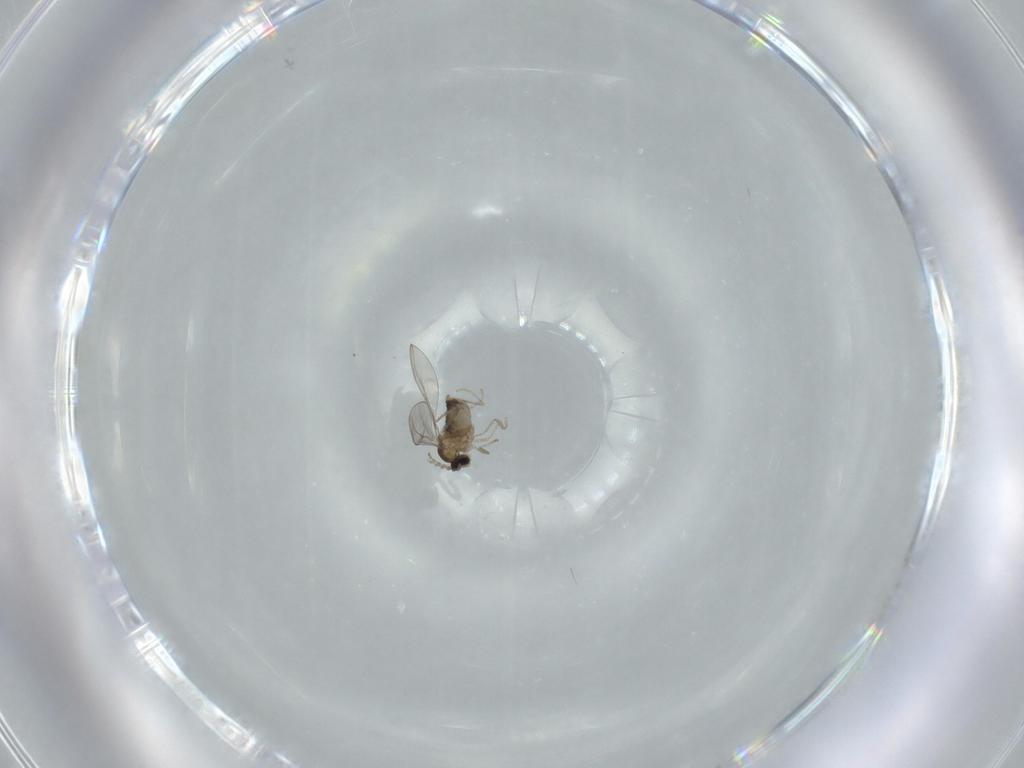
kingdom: Animalia
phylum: Arthropoda
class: Insecta
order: Diptera
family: Cecidomyiidae
